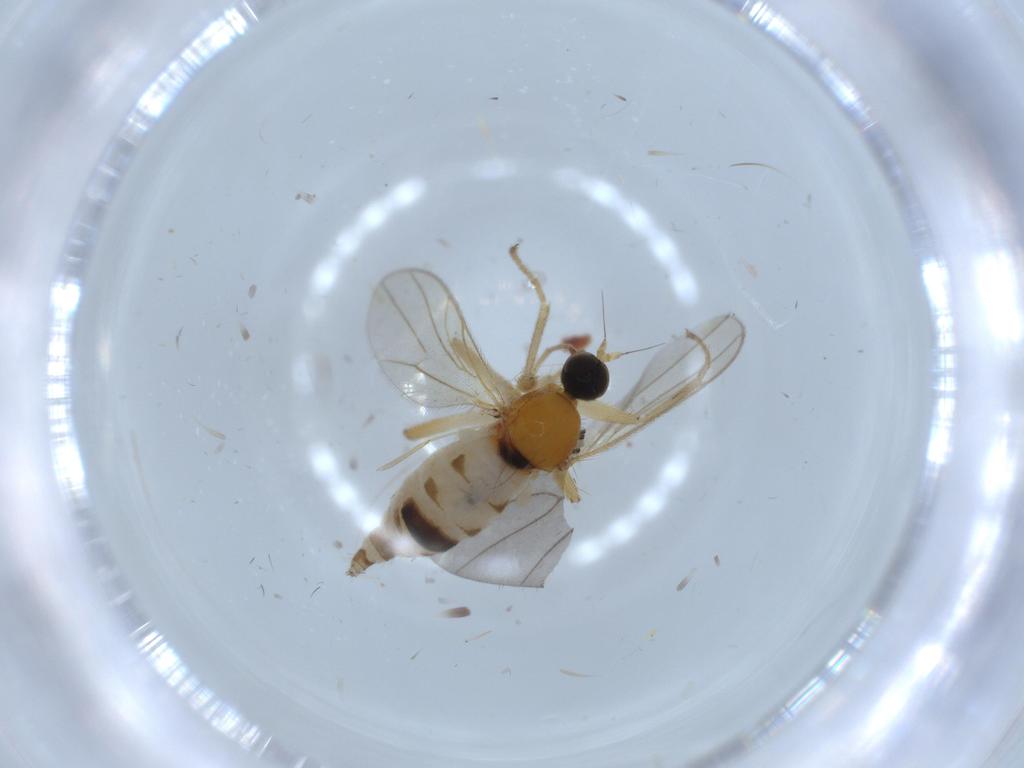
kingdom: Animalia
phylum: Arthropoda
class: Insecta
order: Diptera
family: Hybotidae
